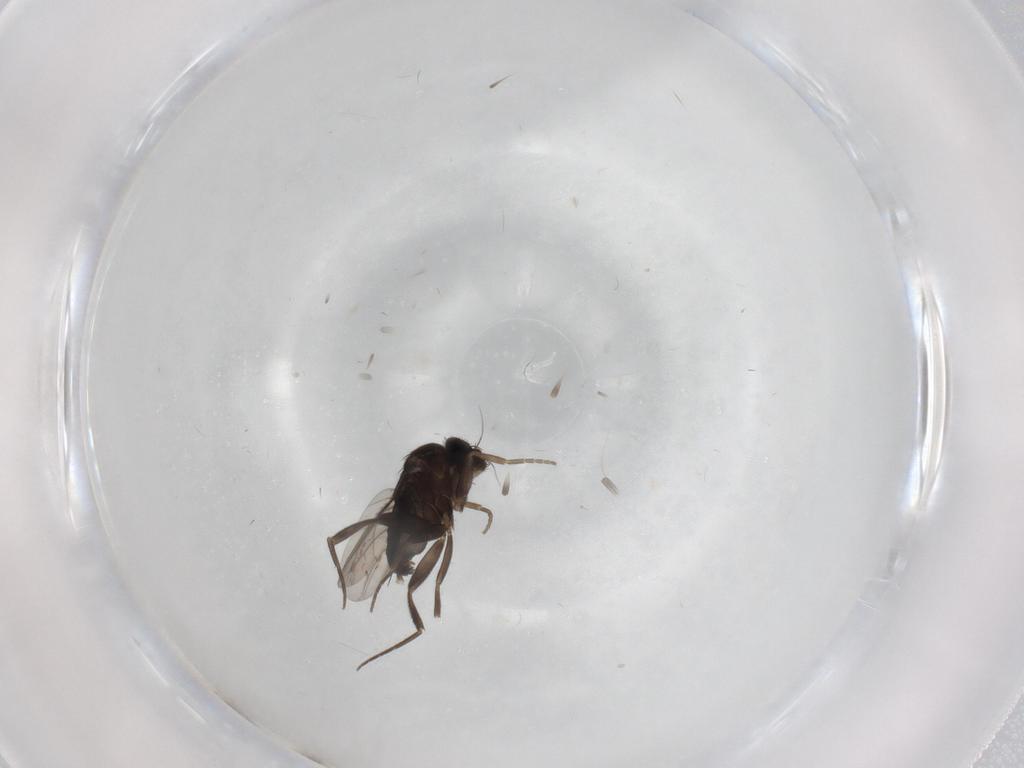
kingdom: Animalia
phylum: Arthropoda
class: Insecta
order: Diptera
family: Phoridae
